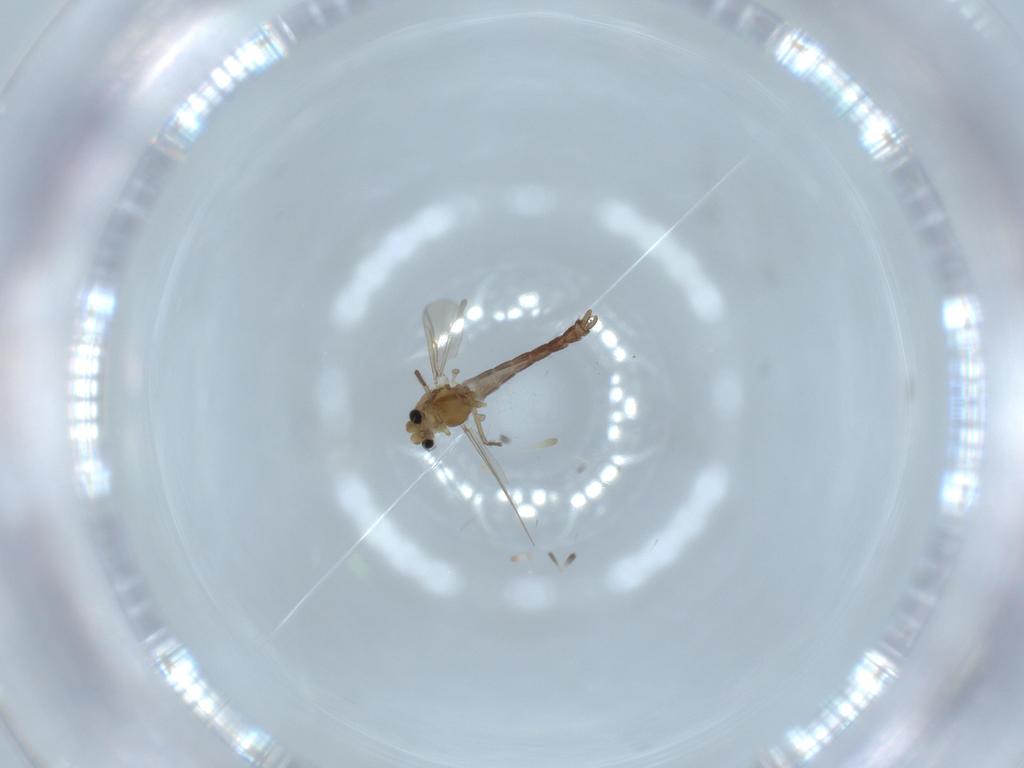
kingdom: Animalia
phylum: Arthropoda
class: Insecta
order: Diptera
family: Chironomidae
